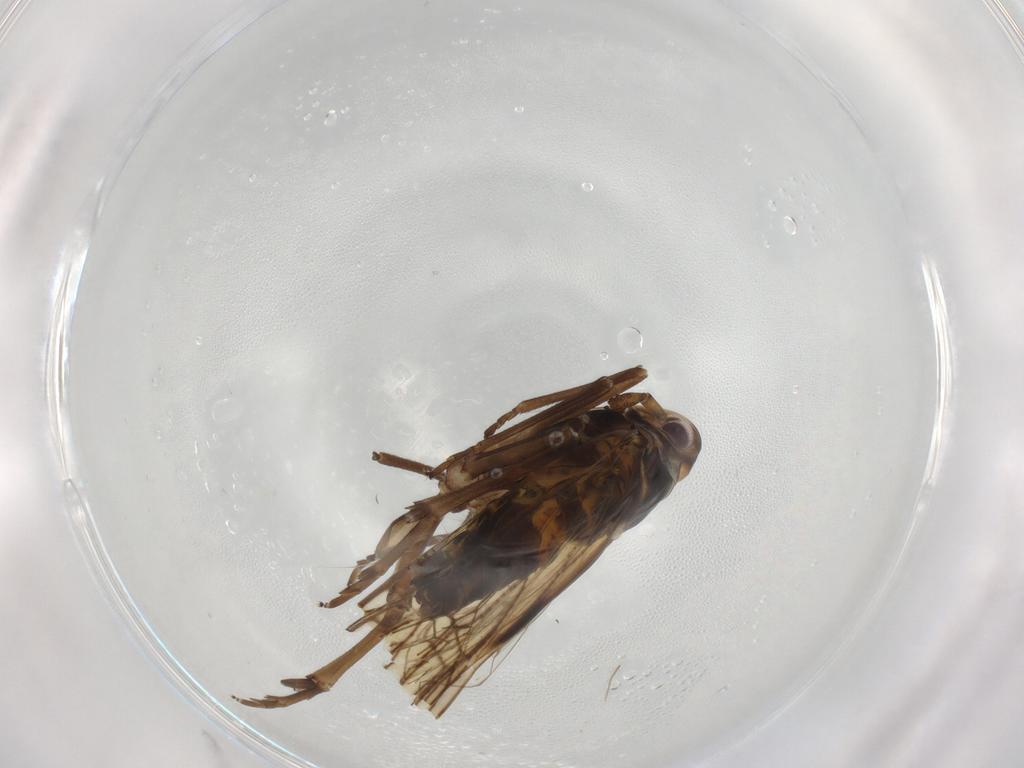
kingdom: Animalia
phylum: Arthropoda
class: Insecta
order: Hemiptera
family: Delphacidae
